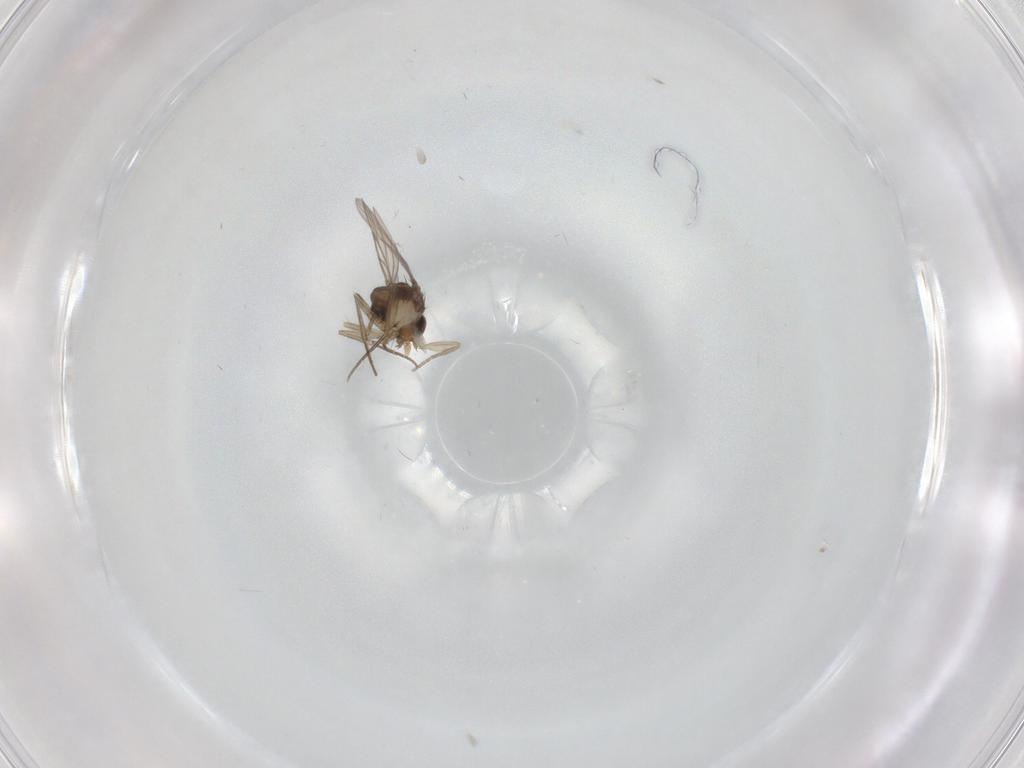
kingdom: Animalia
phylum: Arthropoda
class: Insecta
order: Diptera
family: Phoridae
